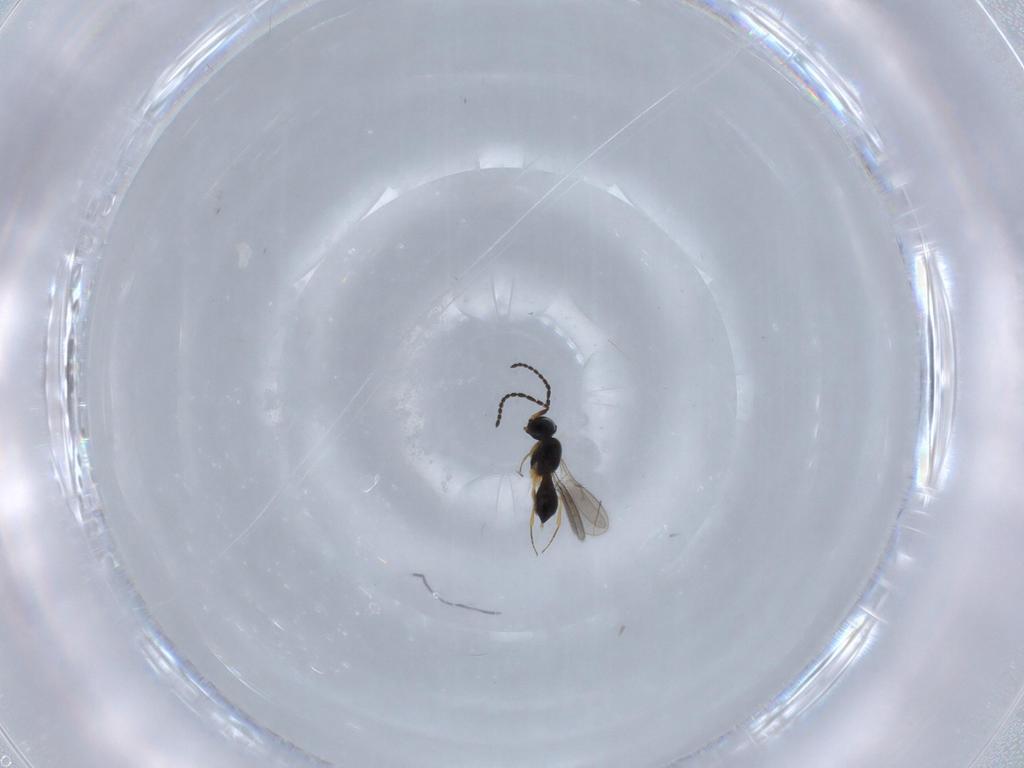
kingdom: Animalia
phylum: Arthropoda
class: Insecta
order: Hymenoptera
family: Scelionidae
